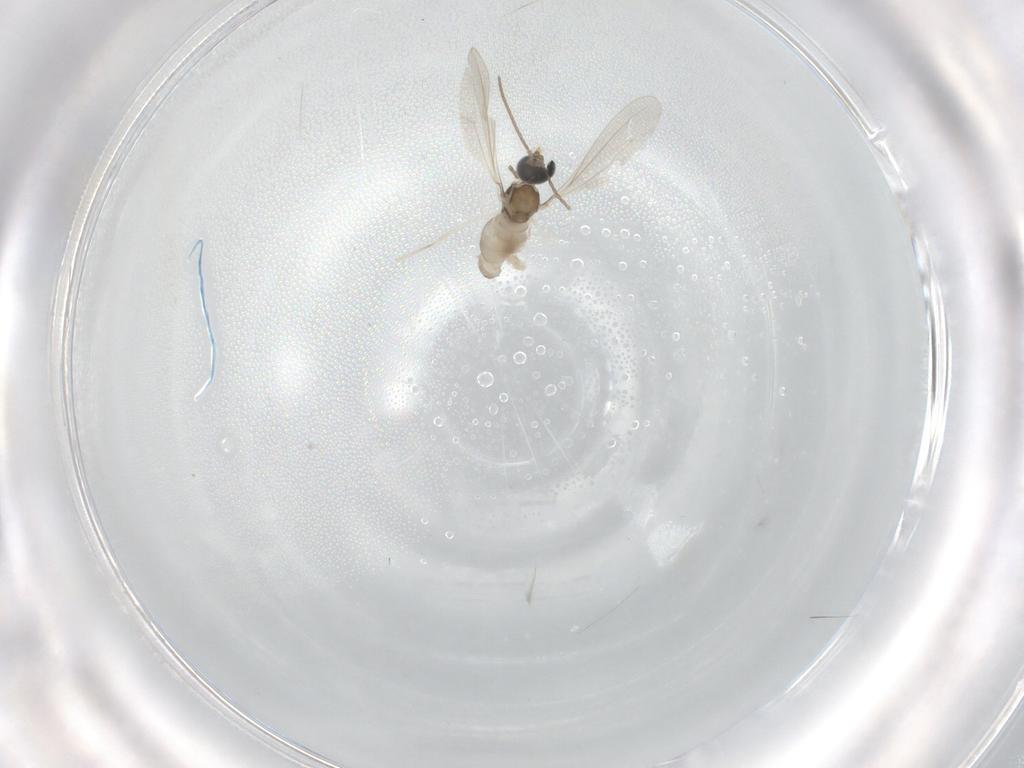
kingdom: Animalia
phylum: Arthropoda
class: Insecta
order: Diptera
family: Cecidomyiidae
